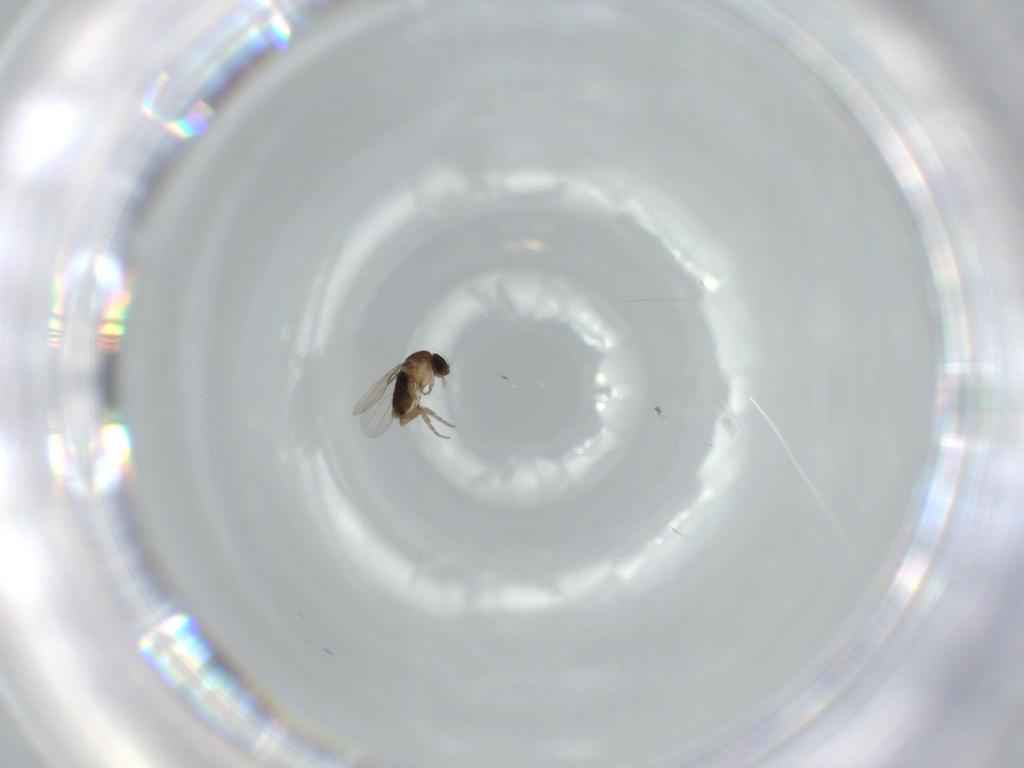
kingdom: Animalia
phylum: Arthropoda
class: Insecta
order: Diptera
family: Phoridae
